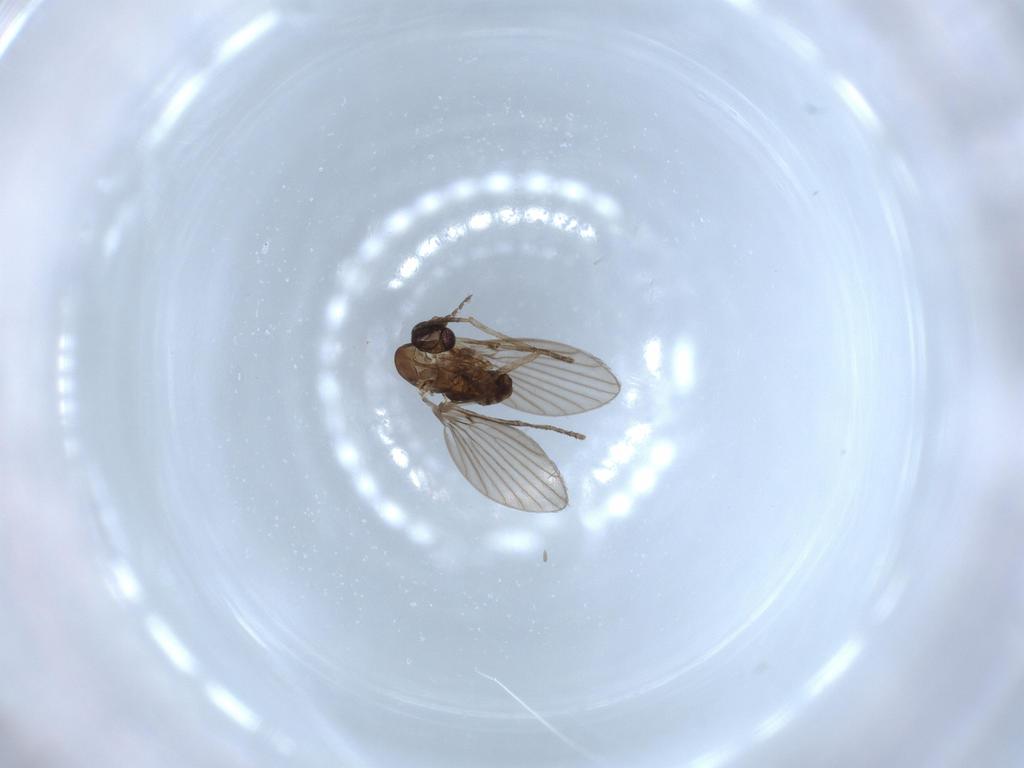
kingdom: Animalia
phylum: Arthropoda
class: Insecta
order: Diptera
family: Psychodidae
